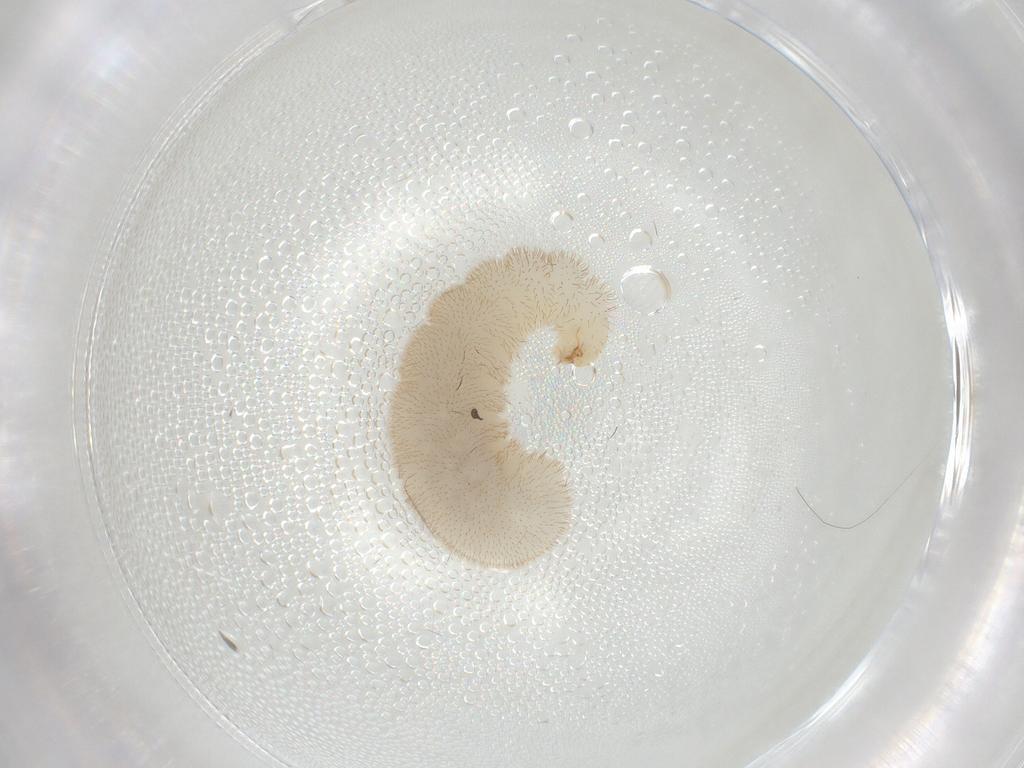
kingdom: Animalia
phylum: Arthropoda
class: Insecta
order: Hymenoptera
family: Formicidae
